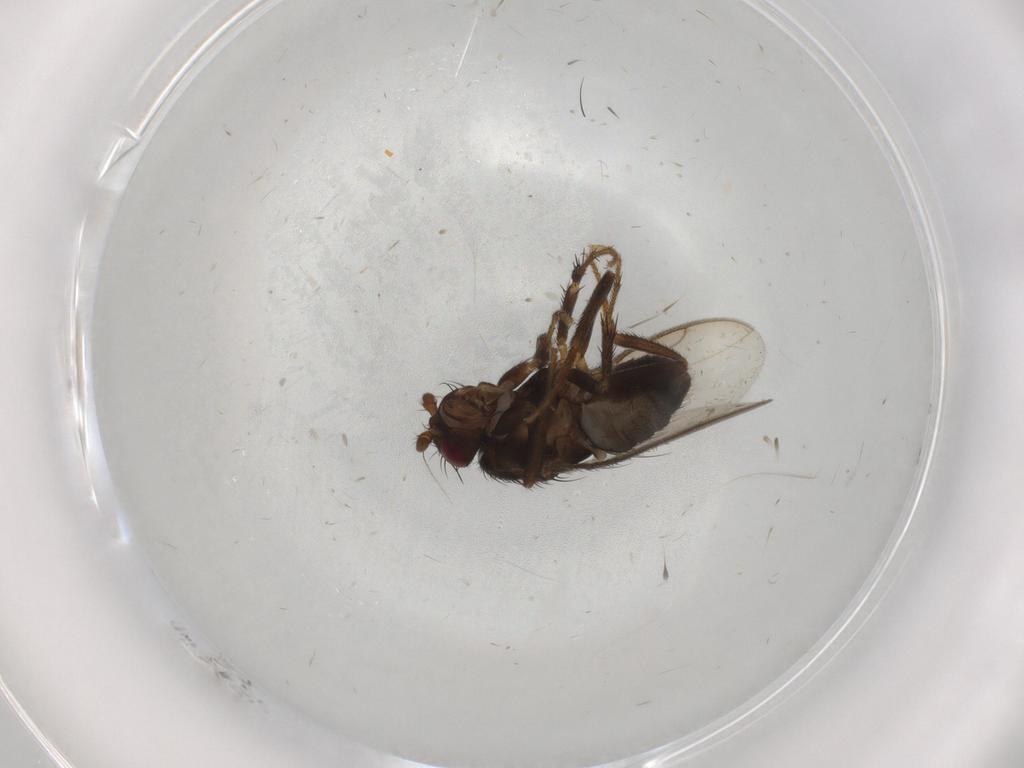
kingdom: Animalia
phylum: Arthropoda
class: Insecta
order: Diptera
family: Sphaeroceridae
